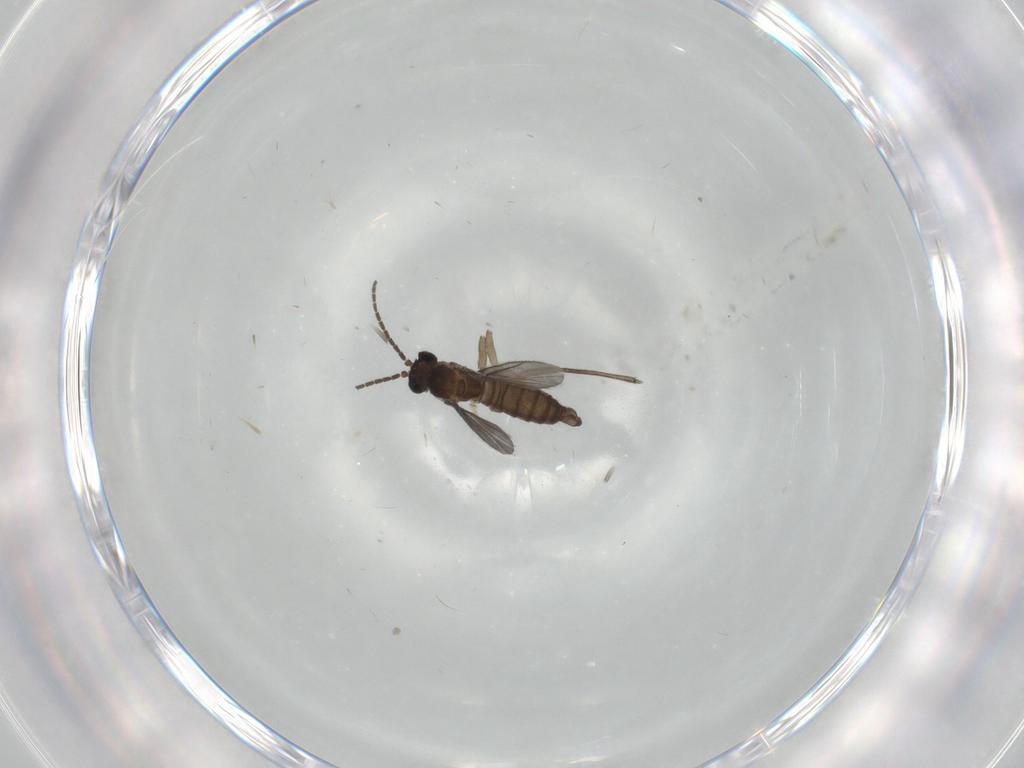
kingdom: Animalia
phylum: Arthropoda
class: Insecta
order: Diptera
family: Sciaridae
